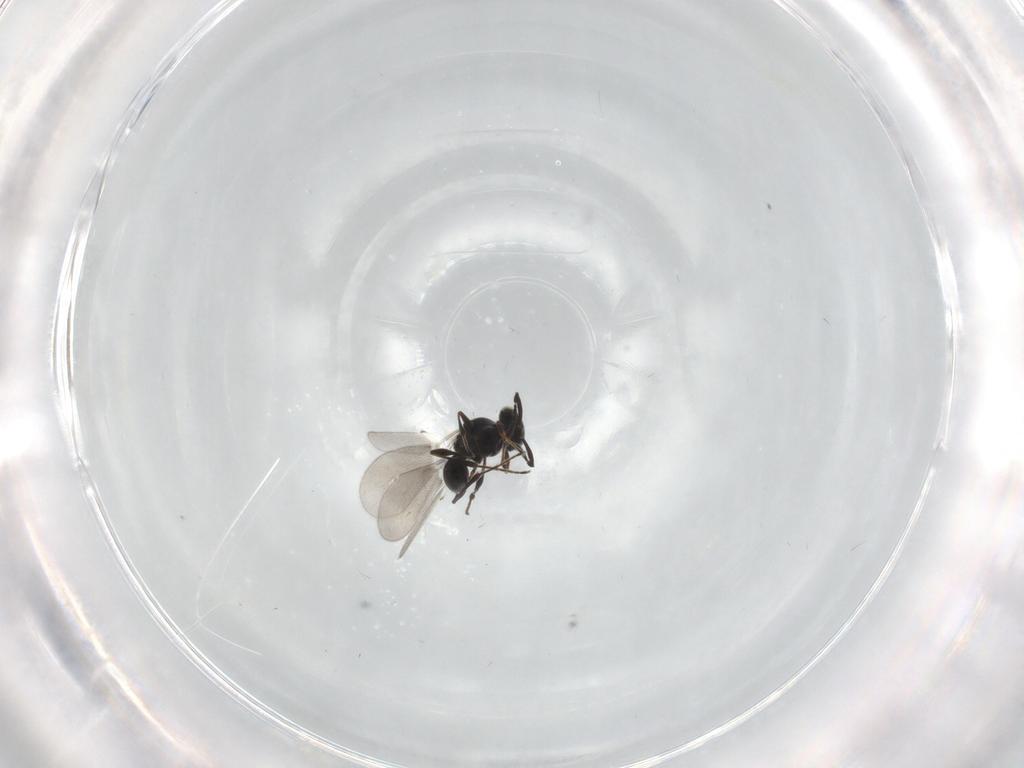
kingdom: Animalia
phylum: Arthropoda
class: Insecta
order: Hymenoptera
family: Platygastridae
